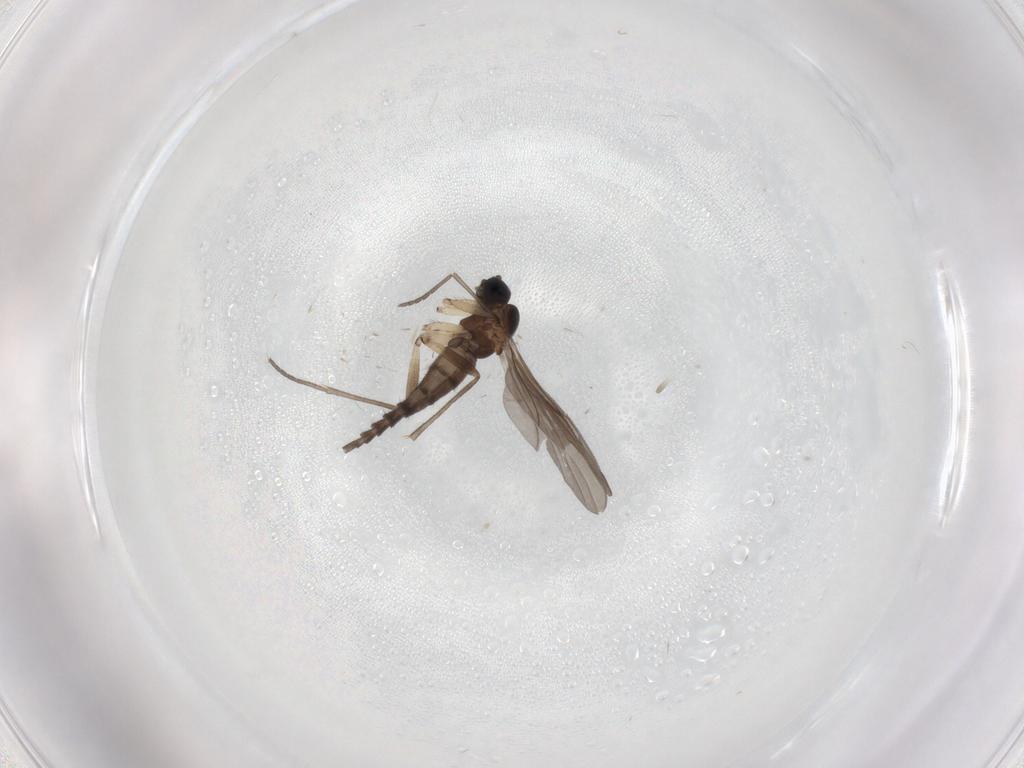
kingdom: Animalia
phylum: Arthropoda
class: Insecta
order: Diptera
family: Sciaridae
